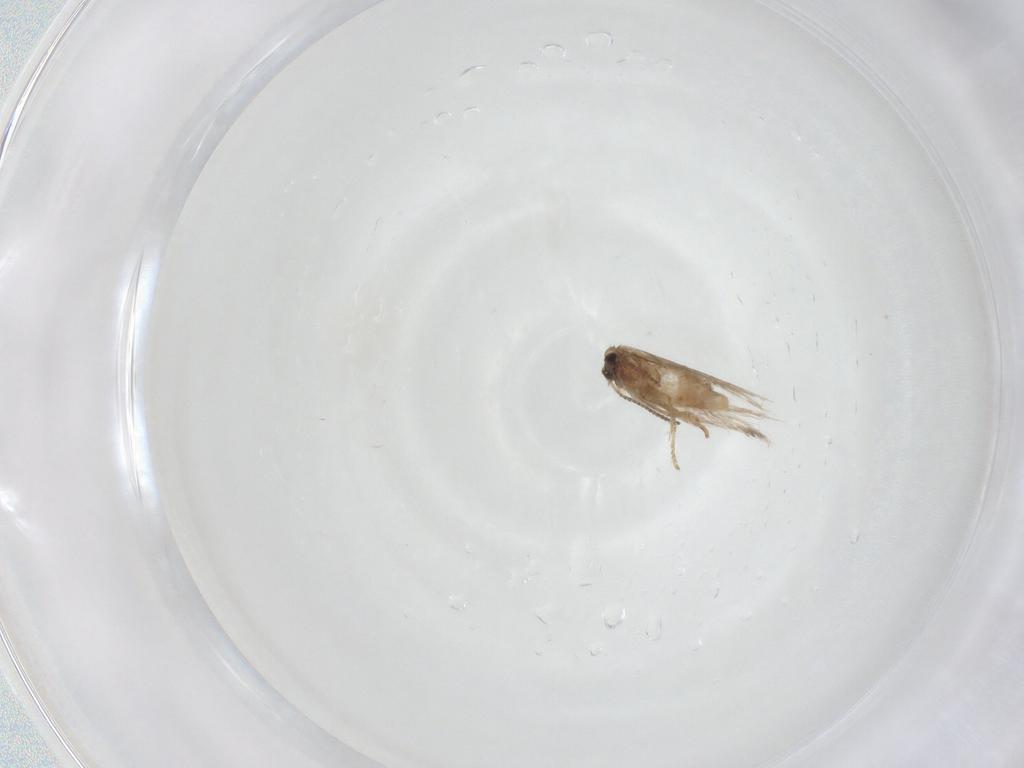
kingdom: Animalia
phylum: Arthropoda
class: Insecta
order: Lepidoptera
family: Nepticulidae
